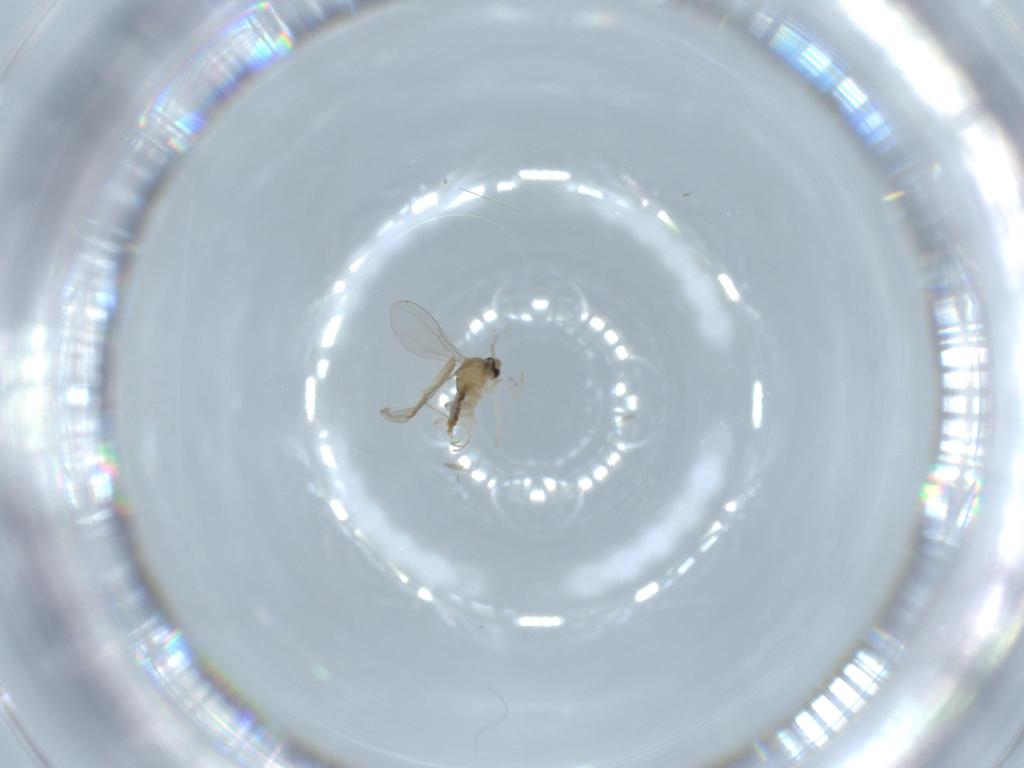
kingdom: Animalia
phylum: Arthropoda
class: Insecta
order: Diptera
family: Cecidomyiidae
